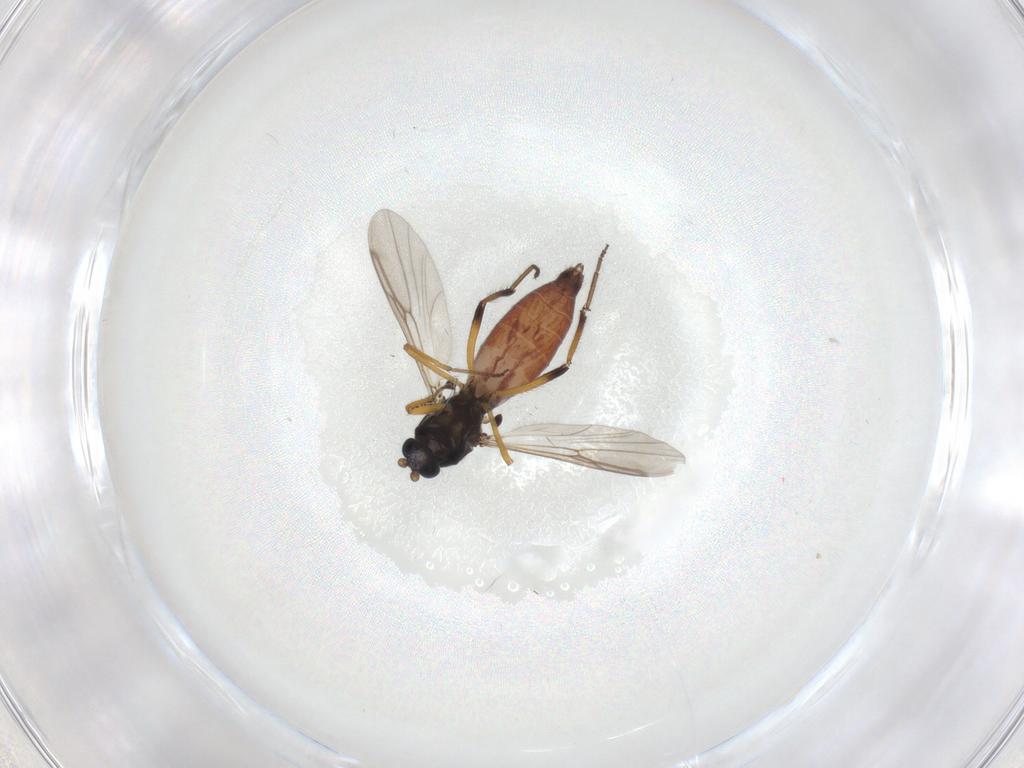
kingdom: Animalia
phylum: Arthropoda
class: Insecta
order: Diptera
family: Ceratopogonidae
